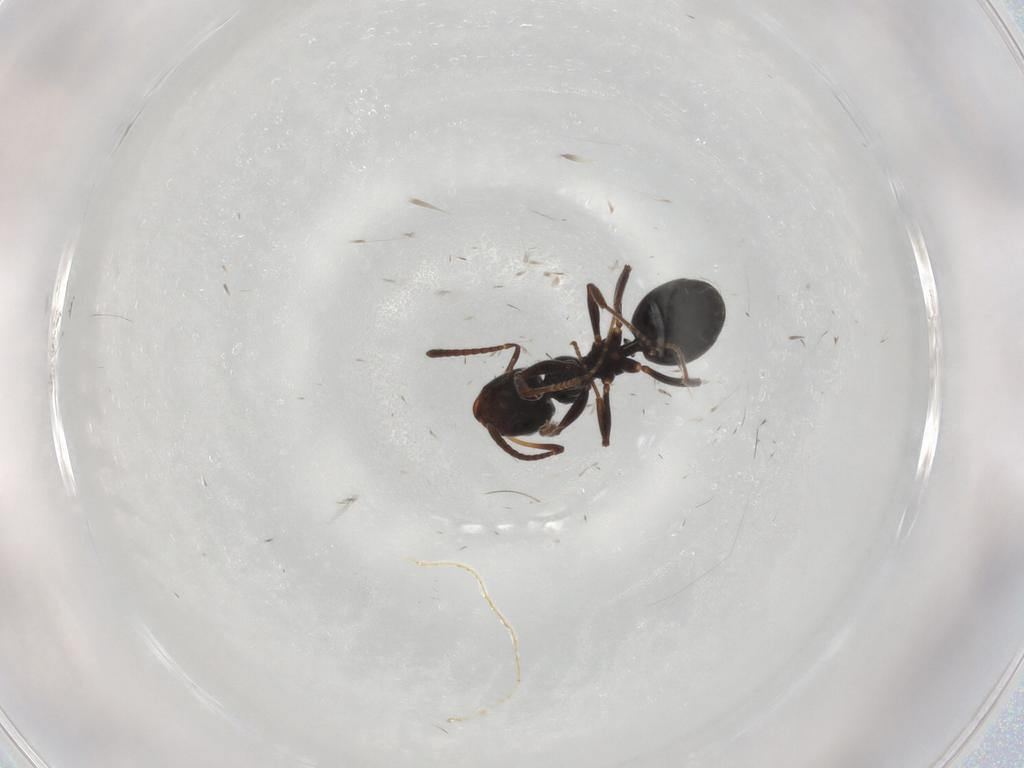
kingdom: Animalia
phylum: Arthropoda
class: Insecta
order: Hymenoptera
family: Formicidae
